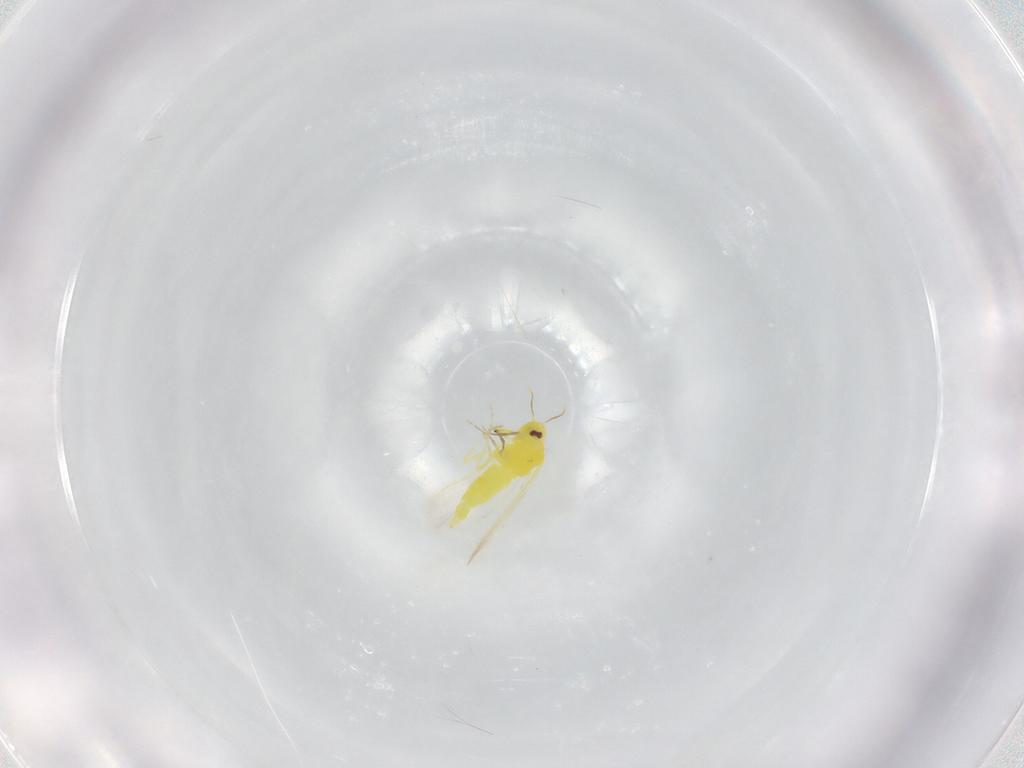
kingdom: Animalia
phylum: Arthropoda
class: Insecta
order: Hemiptera
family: Aleyrodidae
